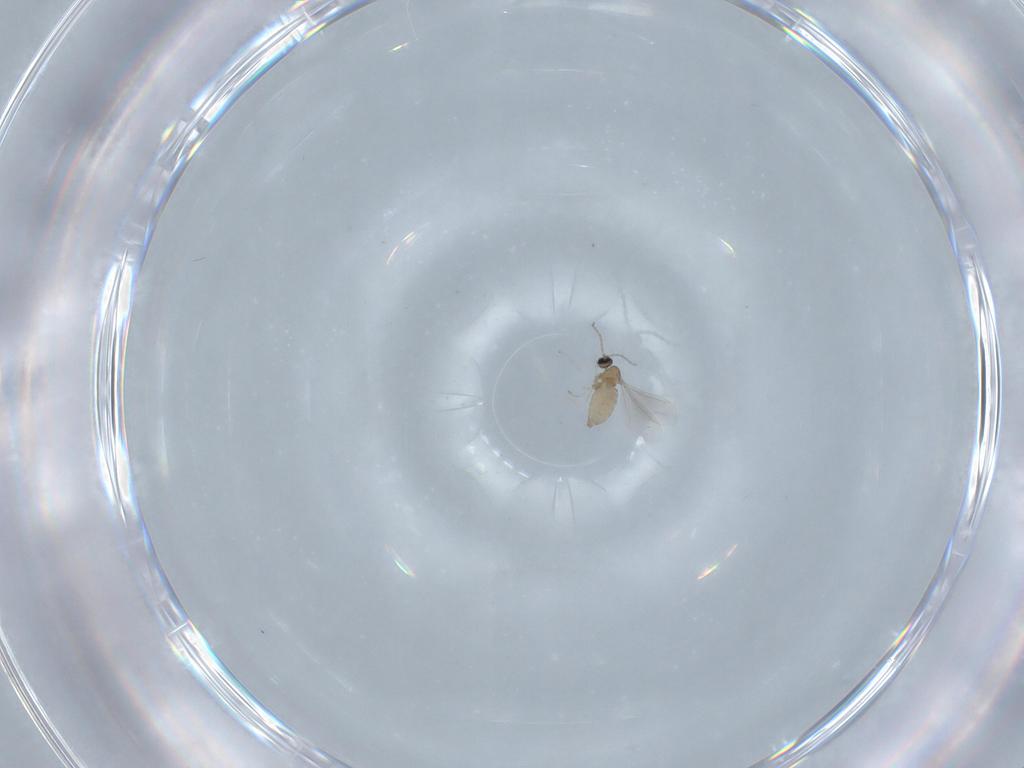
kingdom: Animalia
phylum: Arthropoda
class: Insecta
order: Diptera
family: Cecidomyiidae
